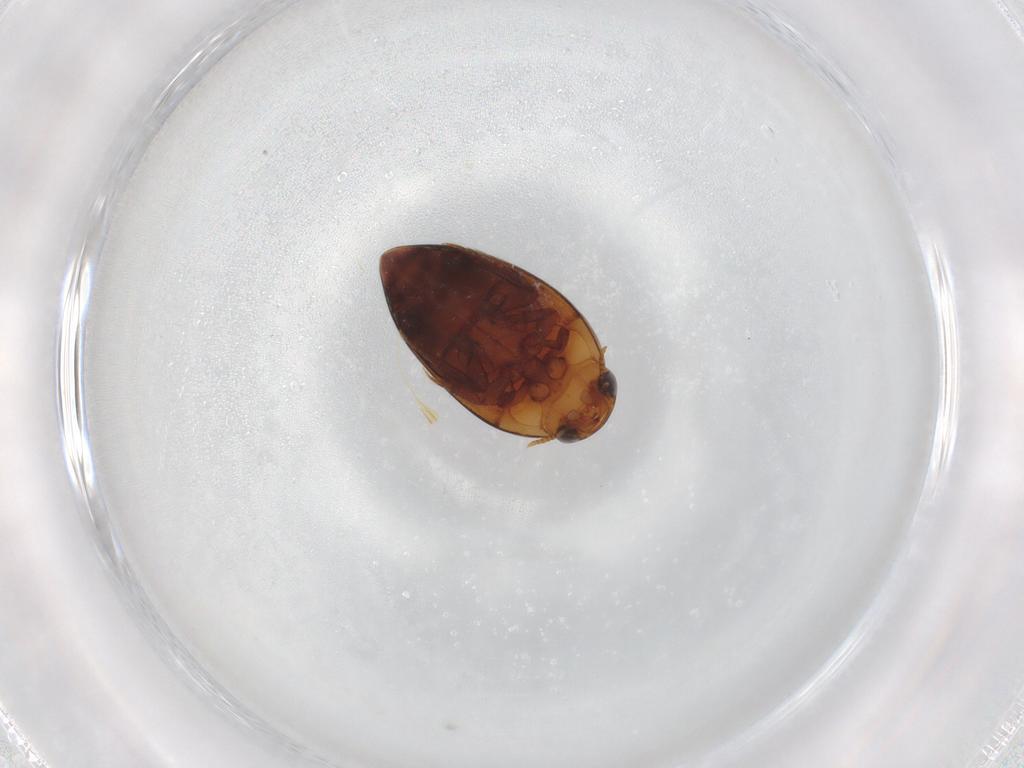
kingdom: Animalia
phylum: Arthropoda
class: Insecta
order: Coleoptera
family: Noteridae
